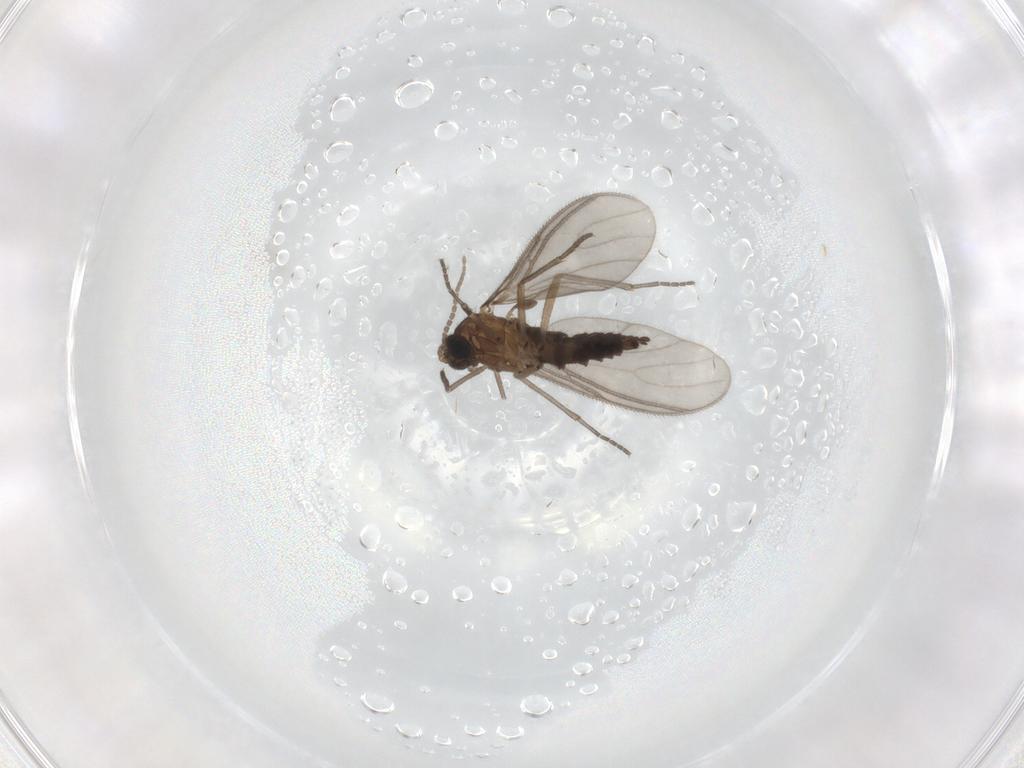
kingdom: Animalia
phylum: Arthropoda
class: Insecta
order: Diptera
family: Sciaridae
